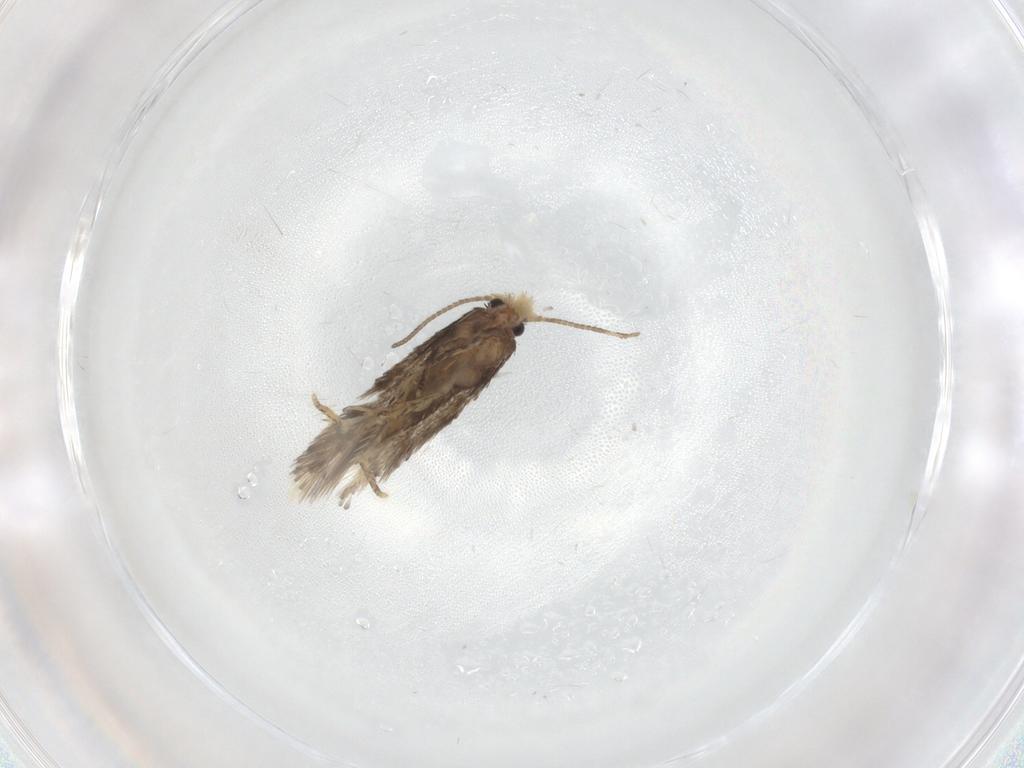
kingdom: Animalia
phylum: Arthropoda
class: Insecta
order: Lepidoptera
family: Nepticulidae
